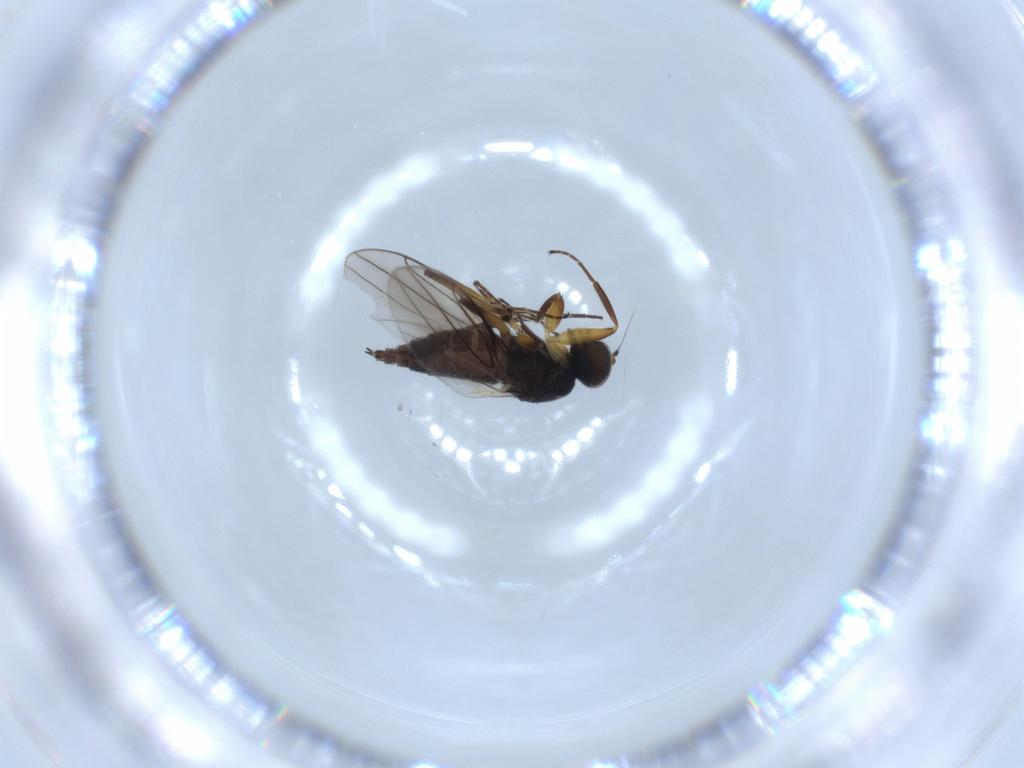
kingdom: Animalia
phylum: Arthropoda
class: Insecta
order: Diptera
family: Hybotidae
